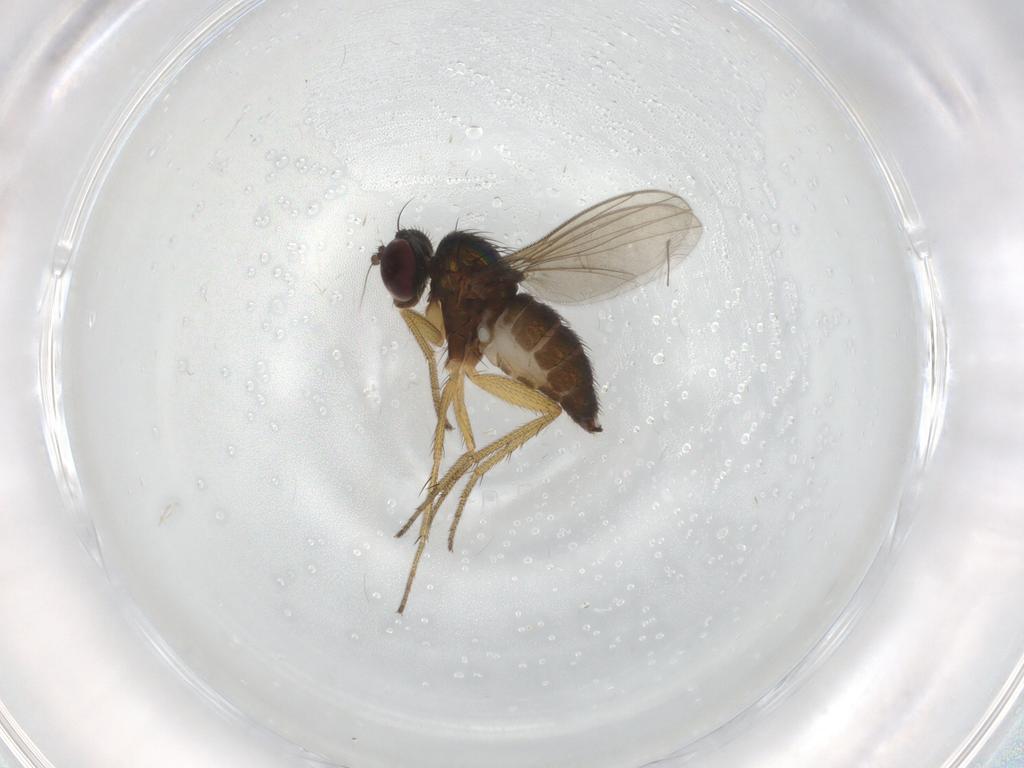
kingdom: Animalia
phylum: Arthropoda
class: Insecta
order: Diptera
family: Dolichopodidae
